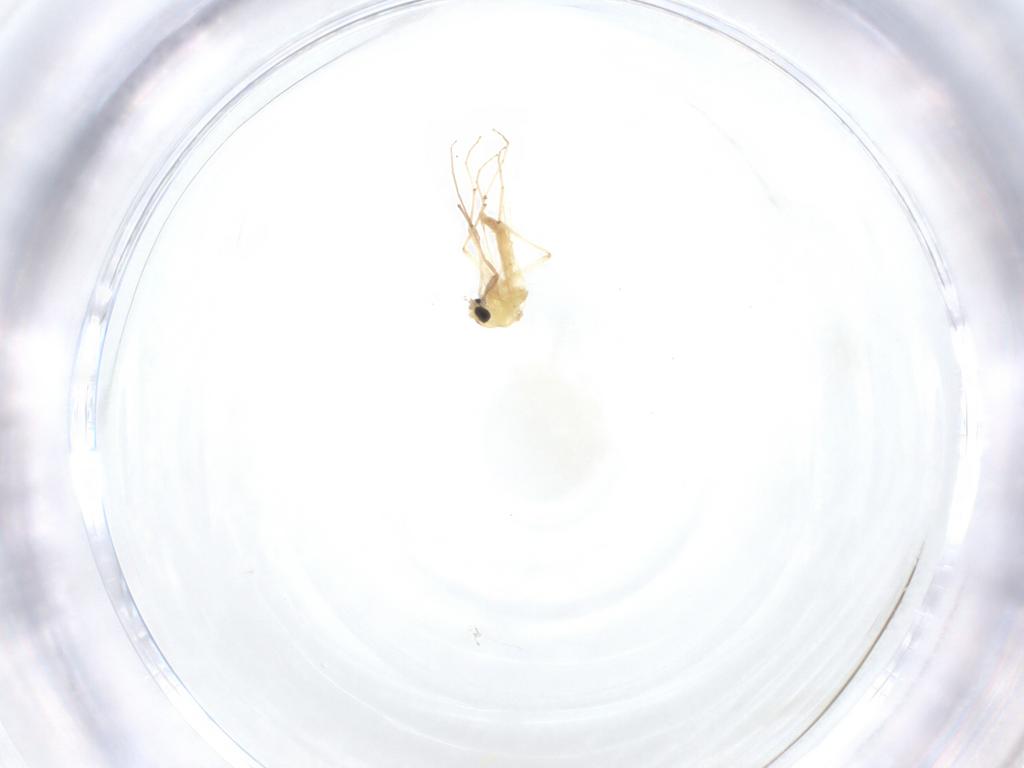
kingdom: Animalia
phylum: Arthropoda
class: Insecta
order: Diptera
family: Chironomidae
